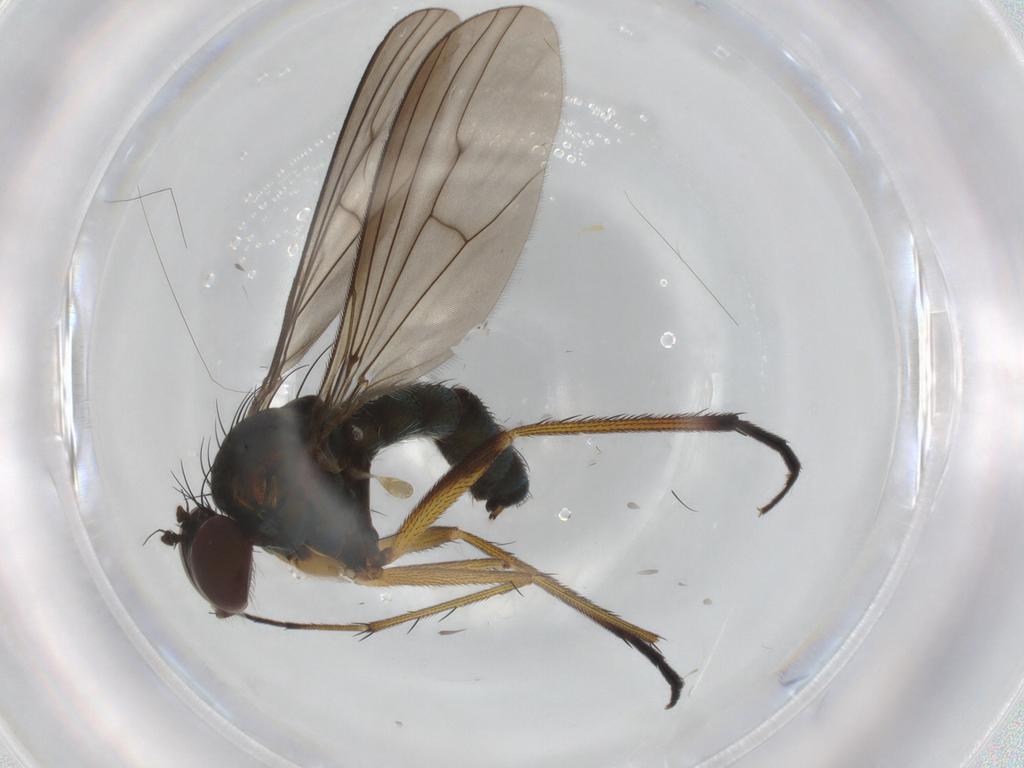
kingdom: Animalia
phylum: Arthropoda
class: Insecta
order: Diptera
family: Dolichopodidae
